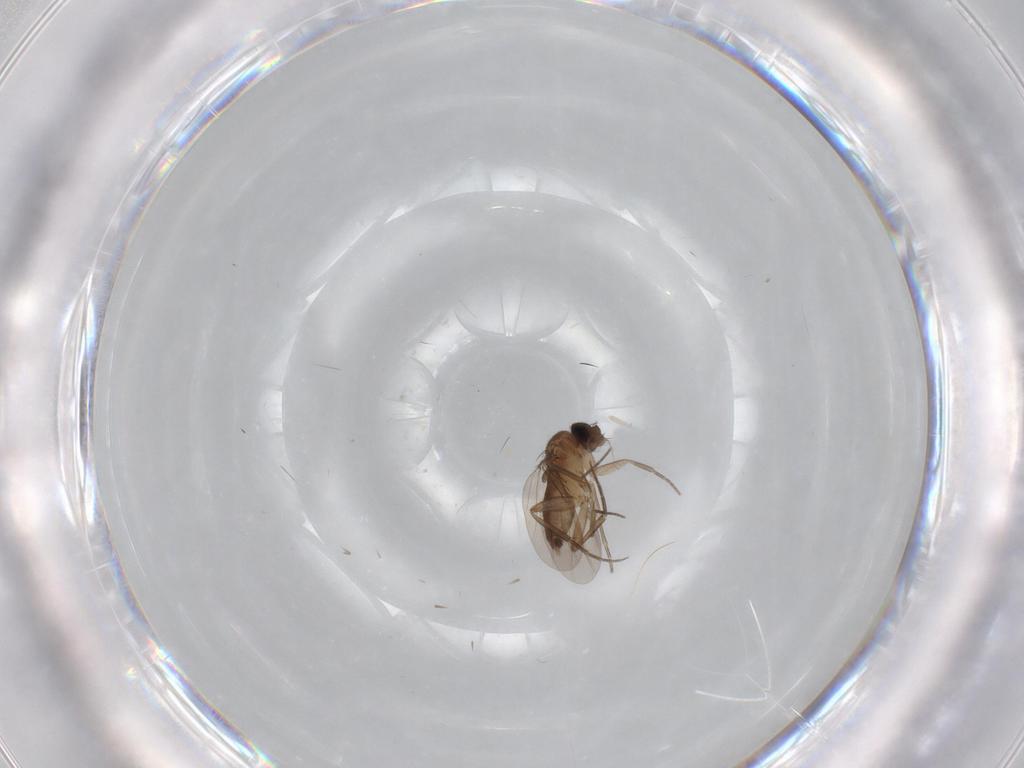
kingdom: Animalia
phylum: Arthropoda
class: Insecta
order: Diptera
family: Phoridae
